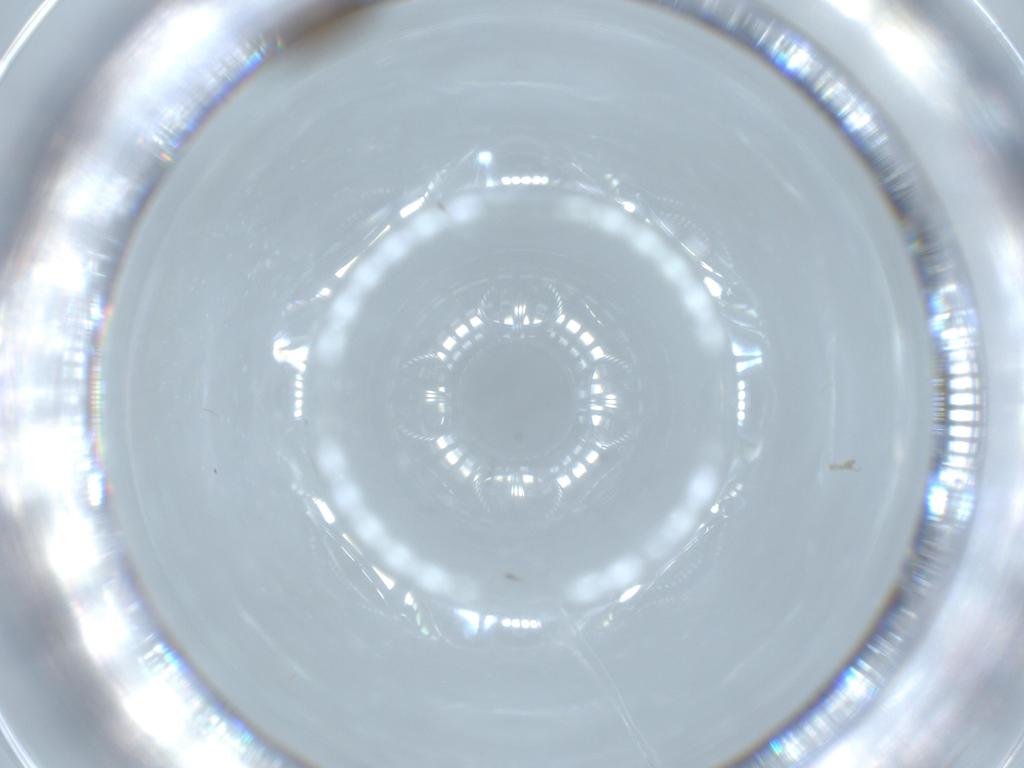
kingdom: Animalia
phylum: Arthropoda
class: Insecta
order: Diptera
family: Psychodidae
